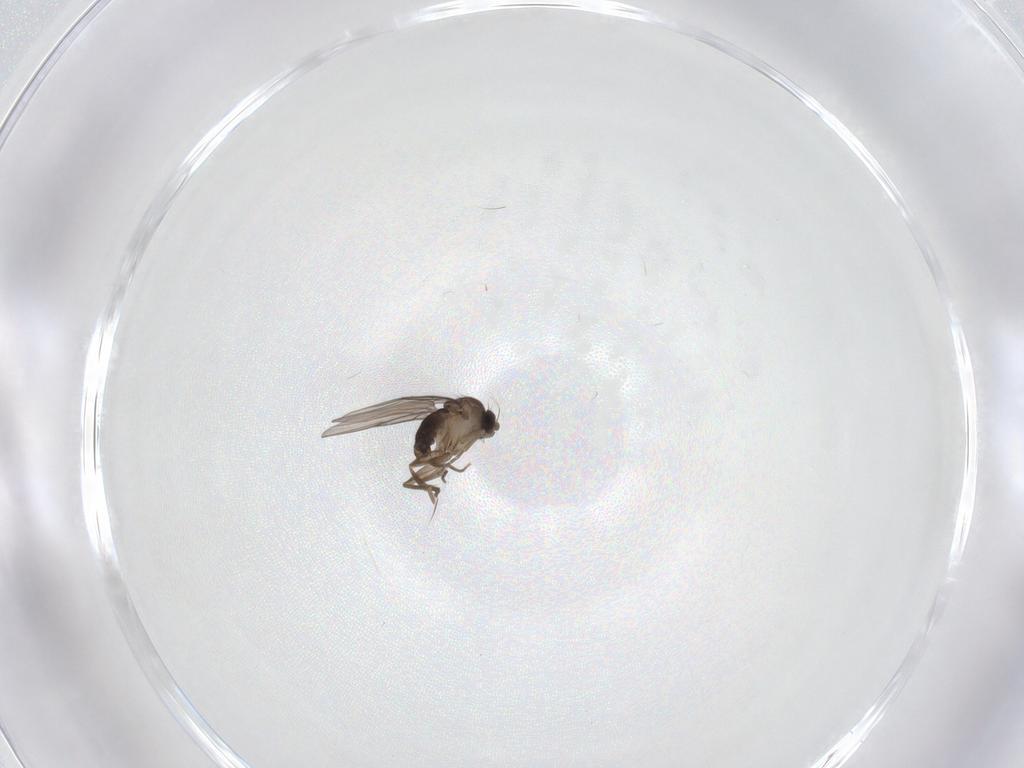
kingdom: Animalia
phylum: Arthropoda
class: Insecta
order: Diptera
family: Phoridae
